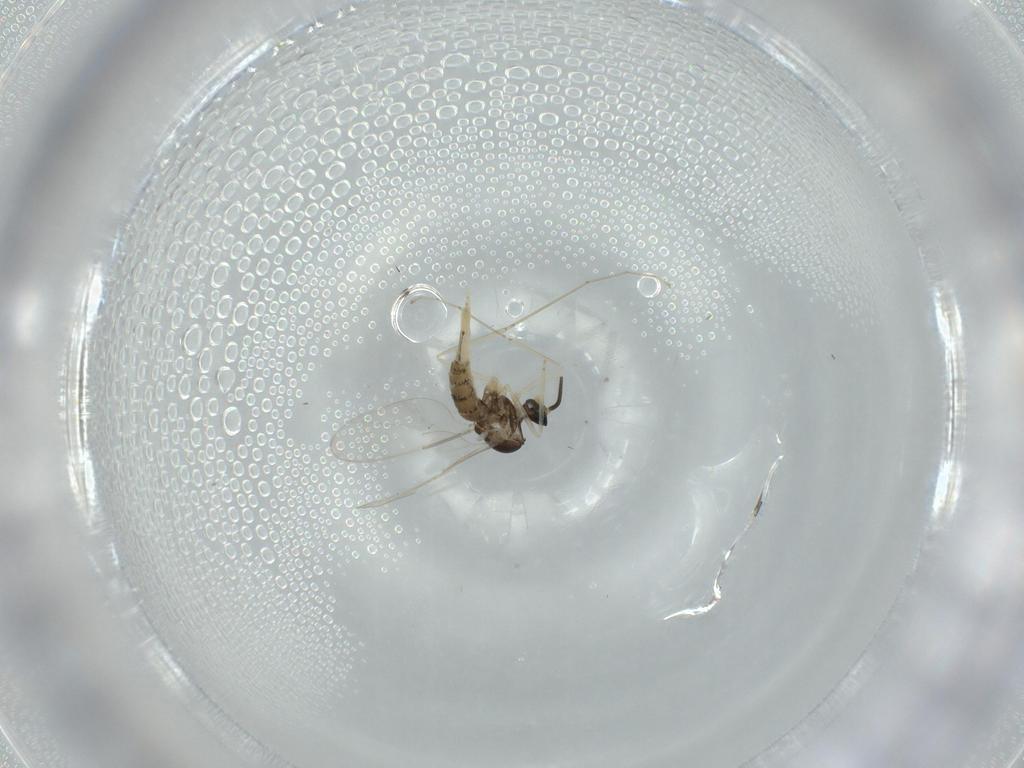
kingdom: Animalia
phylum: Arthropoda
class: Insecta
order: Diptera
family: Cecidomyiidae
